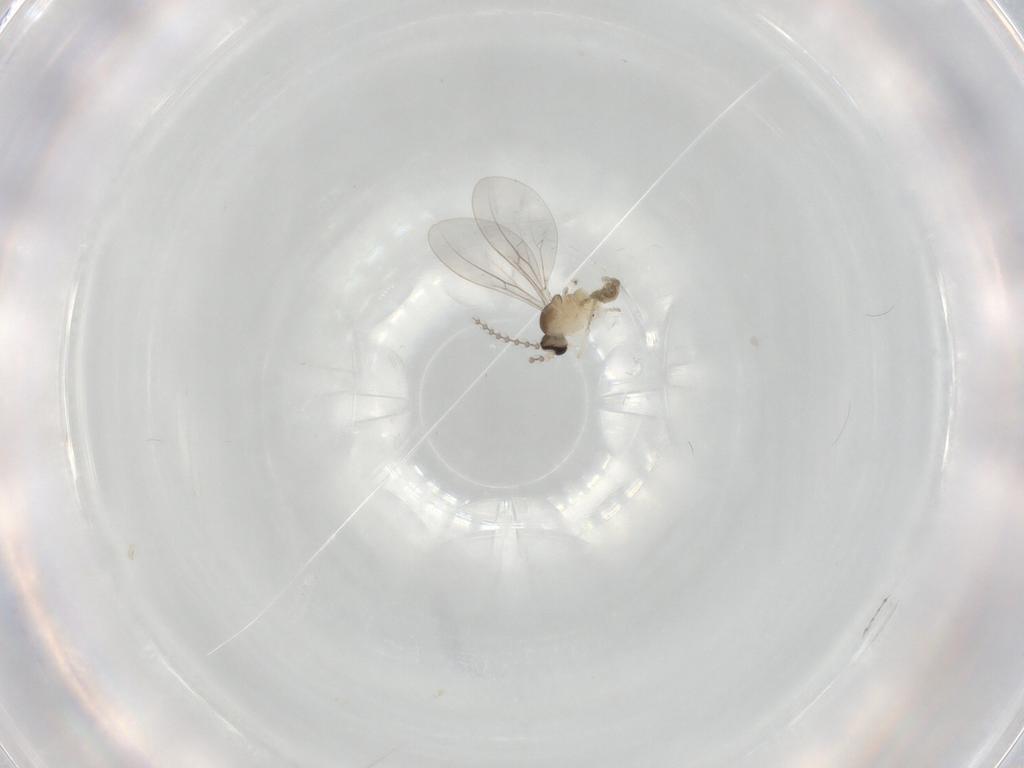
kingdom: Animalia
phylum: Arthropoda
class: Insecta
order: Diptera
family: Cecidomyiidae
